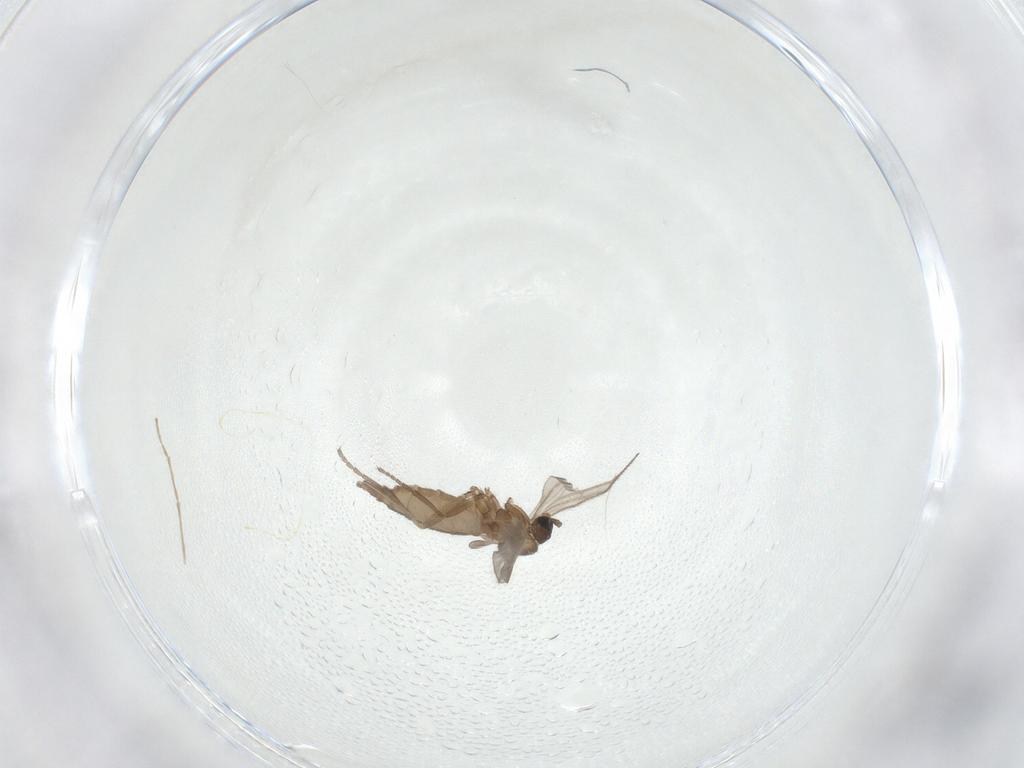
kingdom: Animalia
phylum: Arthropoda
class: Insecta
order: Diptera
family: Sciaridae
